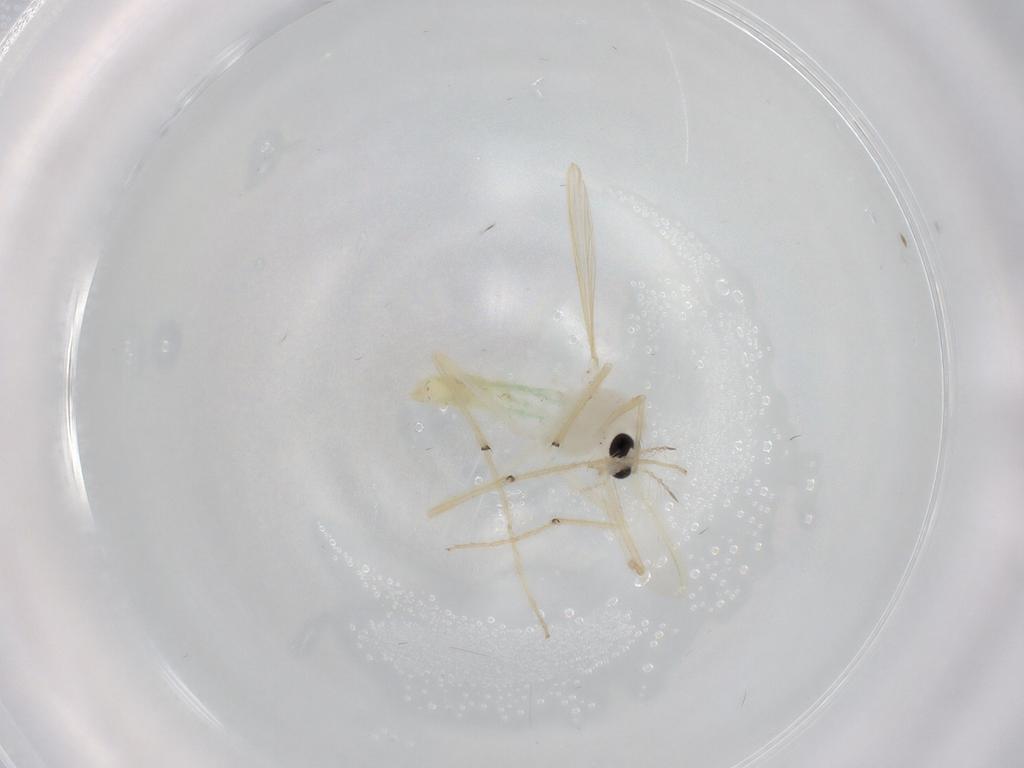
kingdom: Animalia
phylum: Arthropoda
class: Insecta
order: Diptera
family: Chironomidae
